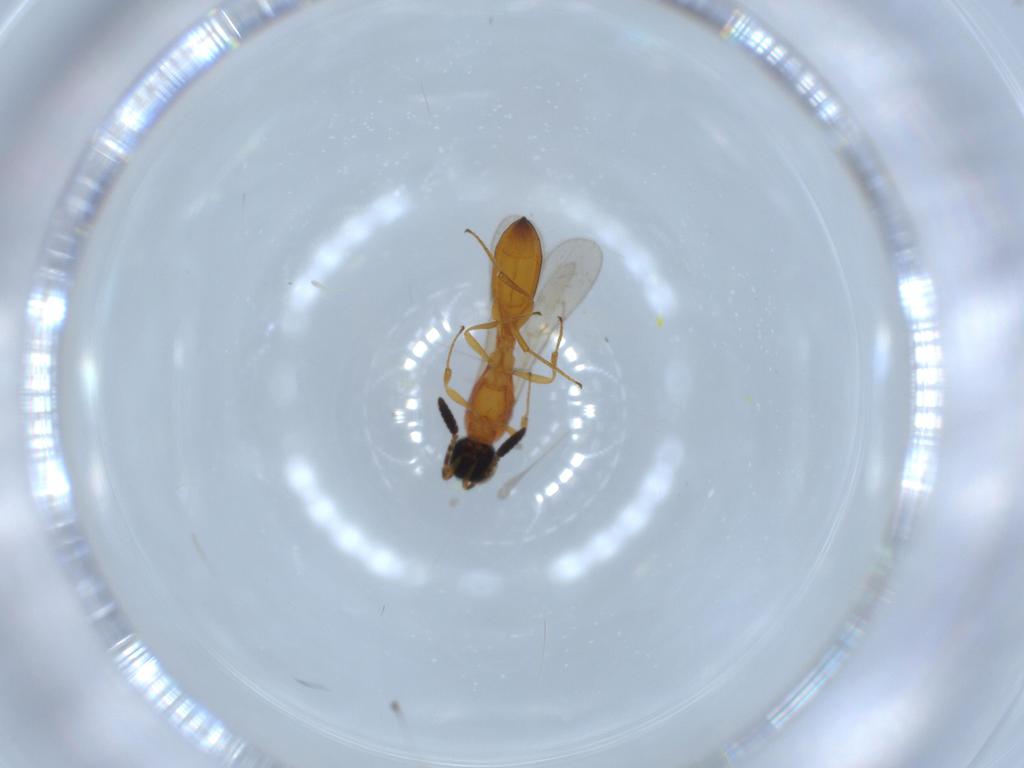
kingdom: Animalia
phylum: Arthropoda
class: Insecta
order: Hymenoptera
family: Scelionidae
